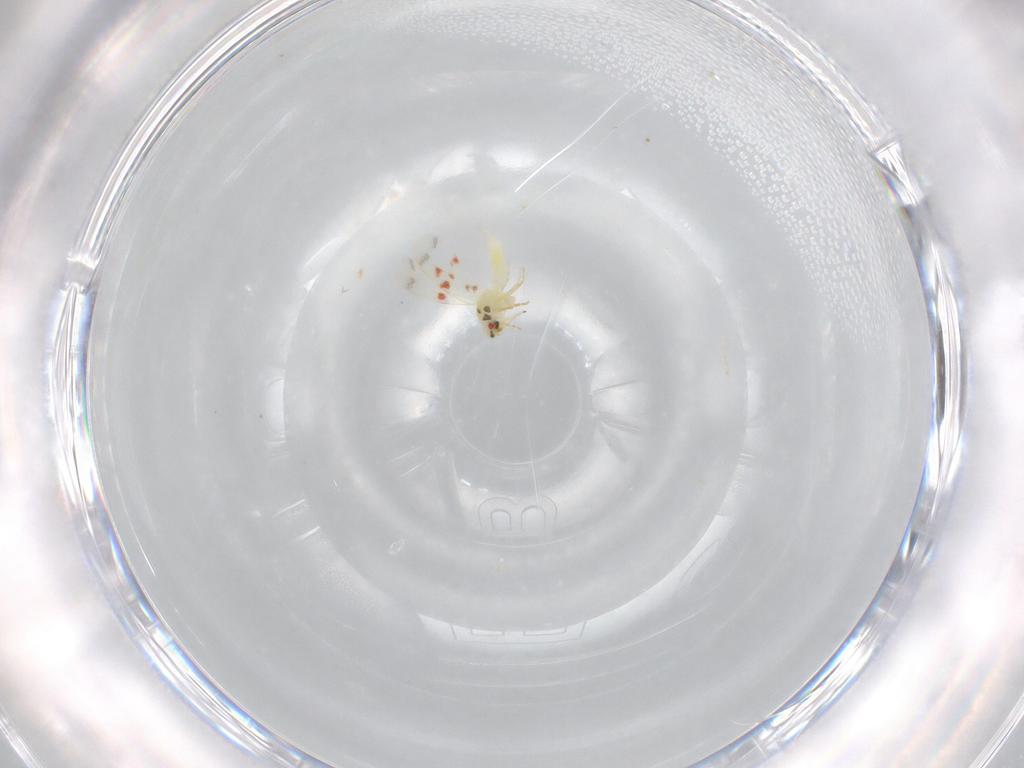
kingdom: Animalia
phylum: Arthropoda
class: Insecta
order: Hemiptera
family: Aleyrodidae
